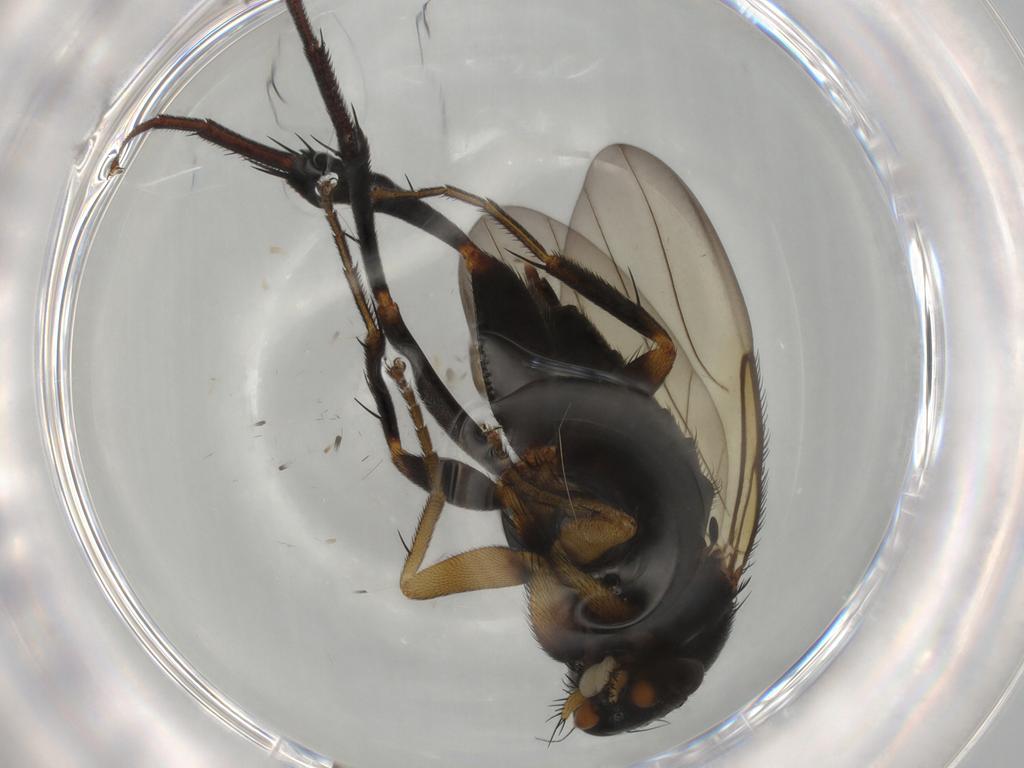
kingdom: Animalia
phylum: Arthropoda
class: Insecta
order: Diptera
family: Phoridae
